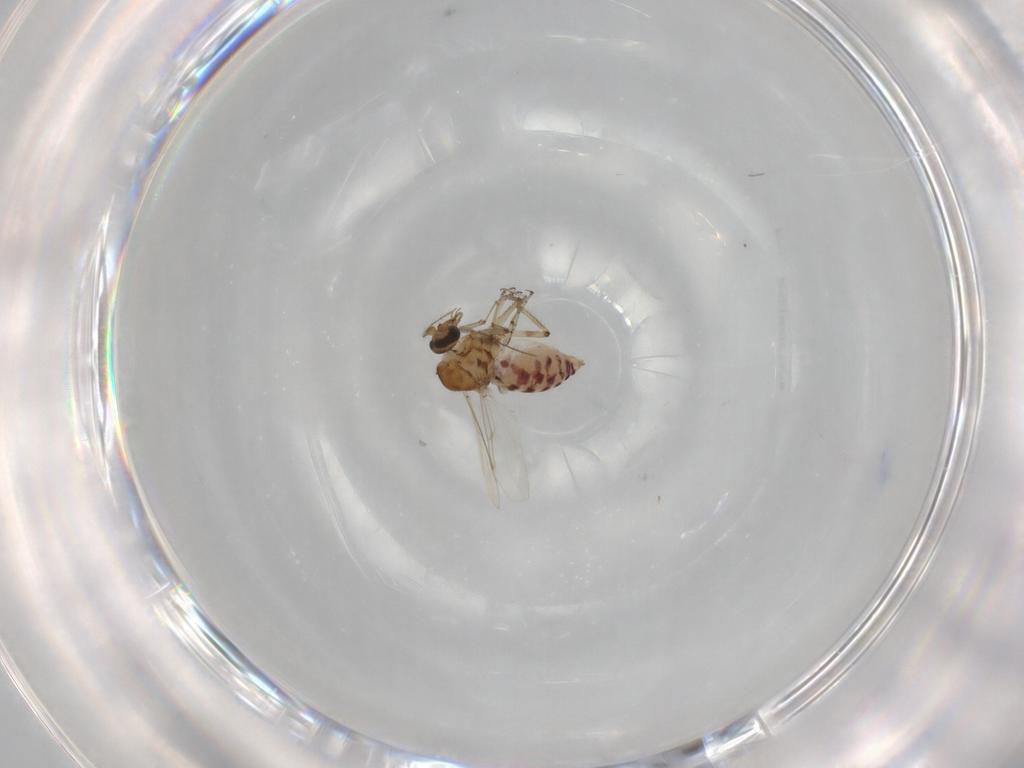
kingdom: Animalia
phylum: Arthropoda
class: Insecta
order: Diptera
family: Ceratopogonidae
